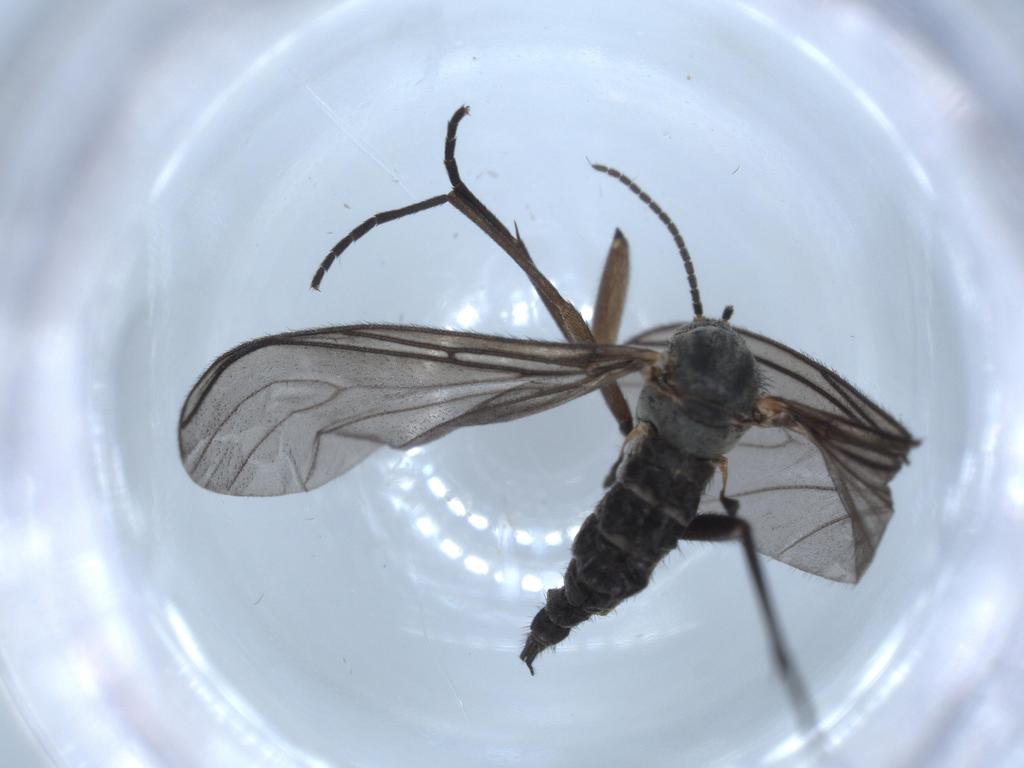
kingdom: Animalia
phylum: Arthropoda
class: Insecta
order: Diptera
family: Sciaridae
